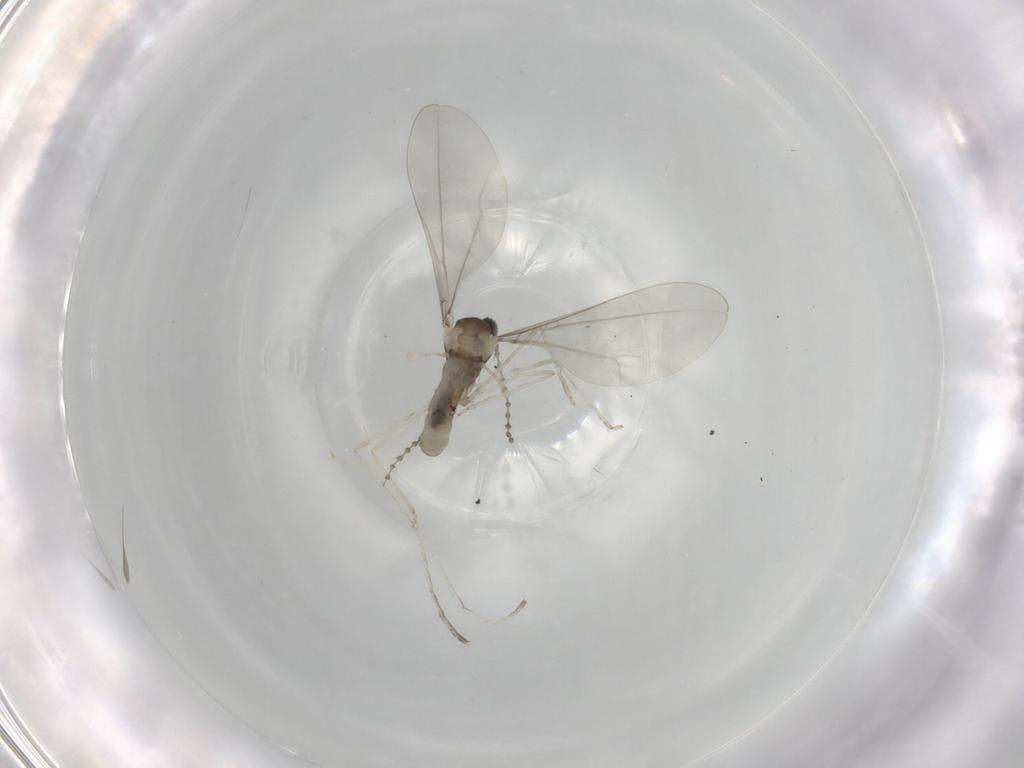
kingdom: Animalia
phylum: Arthropoda
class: Insecta
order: Diptera
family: Cecidomyiidae
